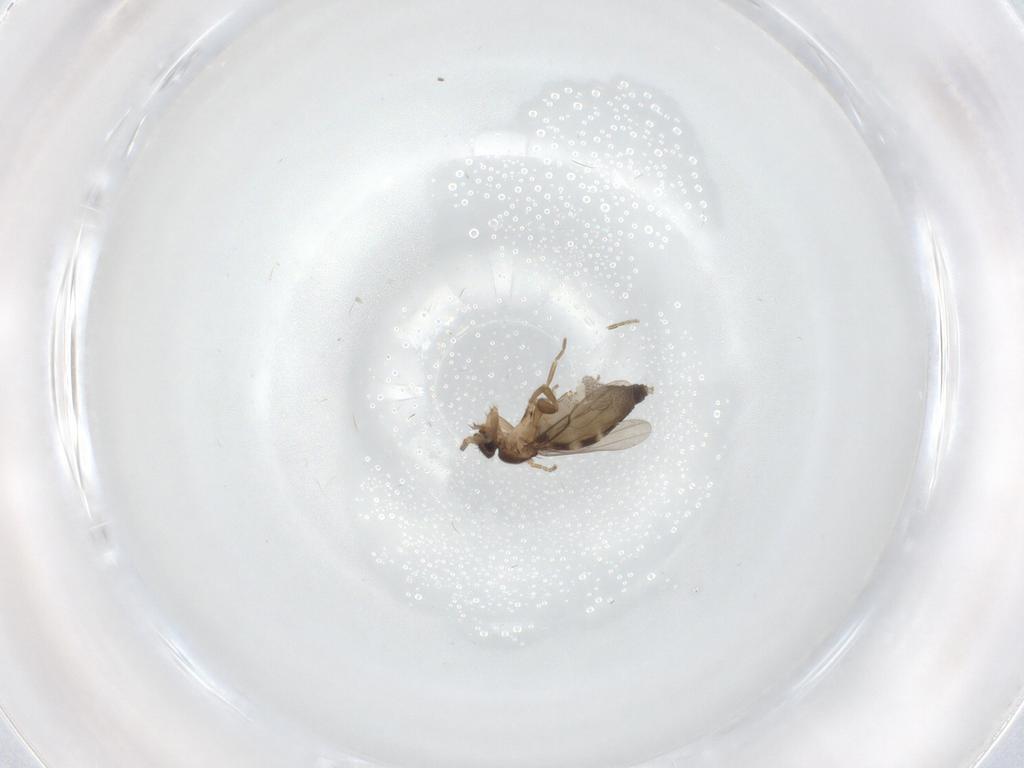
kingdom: Animalia
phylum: Arthropoda
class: Insecta
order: Diptera
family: Phoridae
